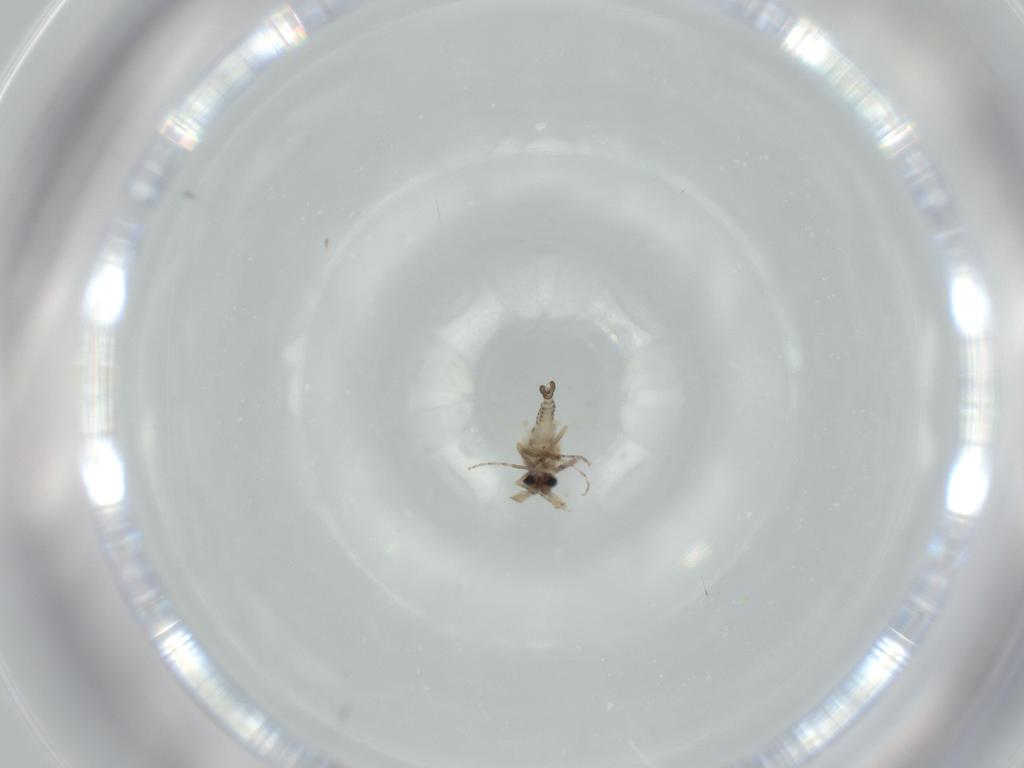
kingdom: Animalia
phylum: Arthropoda
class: Insecta
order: Diptera
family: Ceratopogonidae
